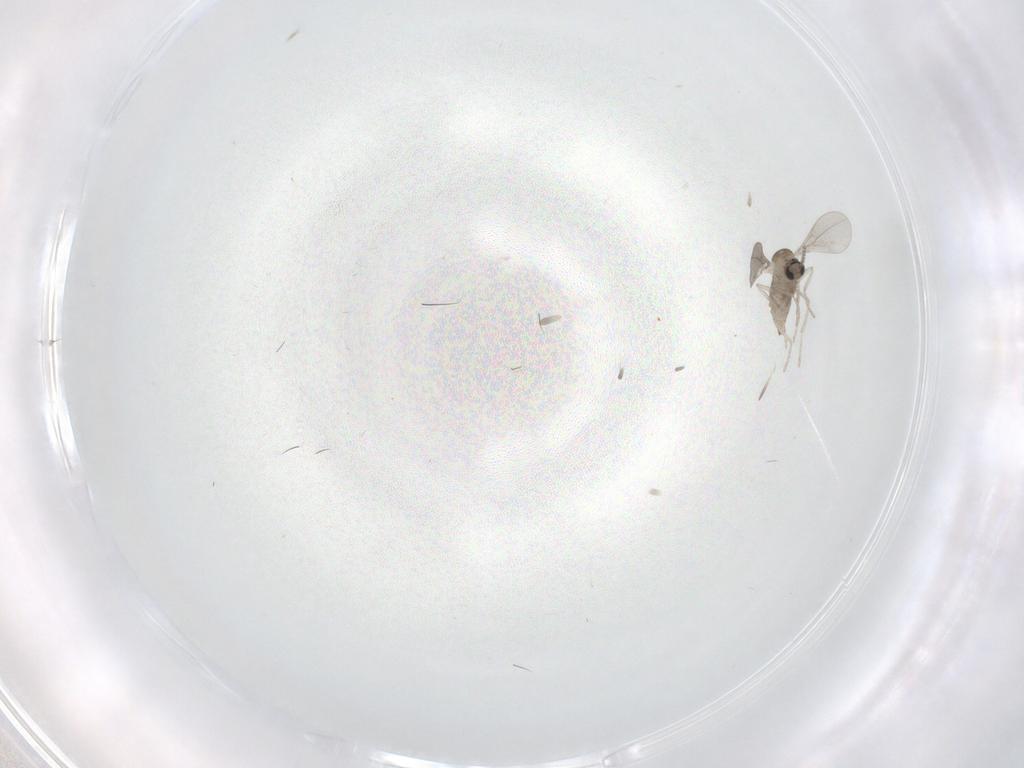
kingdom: Animalia
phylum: Arthropoda
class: Insecta
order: Diptera
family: Cecidomyiidae
